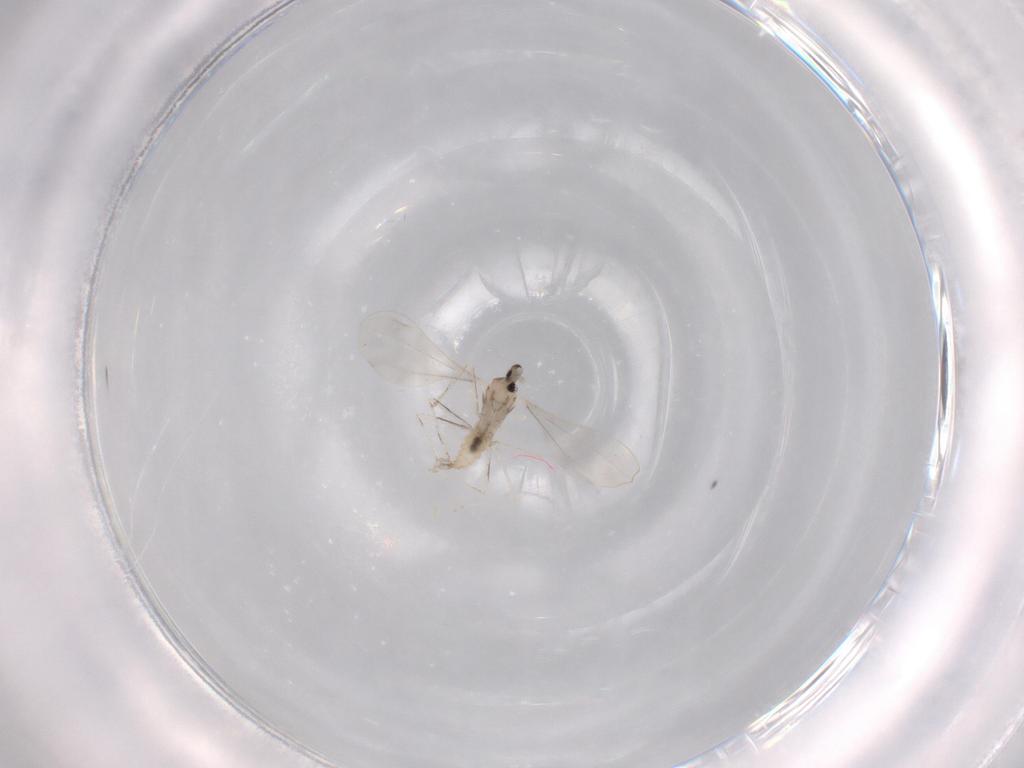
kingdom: Animalia
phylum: Arthropoda
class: Insecta
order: Diptera
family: Cecidomyiidae
